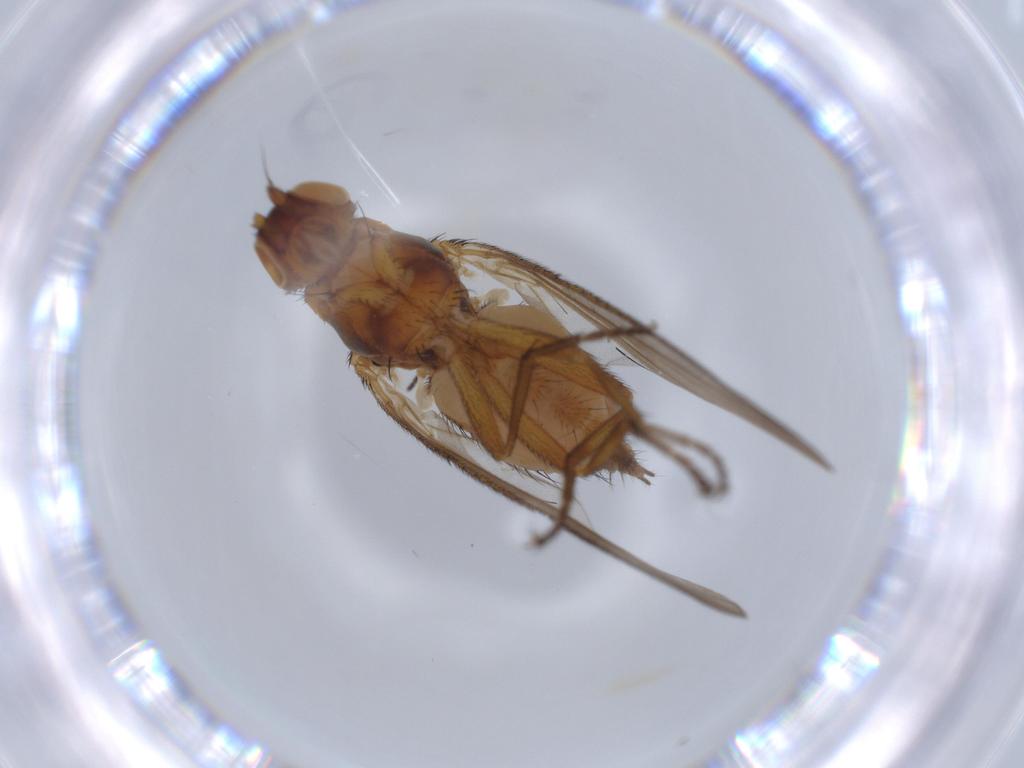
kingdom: Animalia
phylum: Arthropoda
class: Insecta
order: Diptera
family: Heleomyzidae
